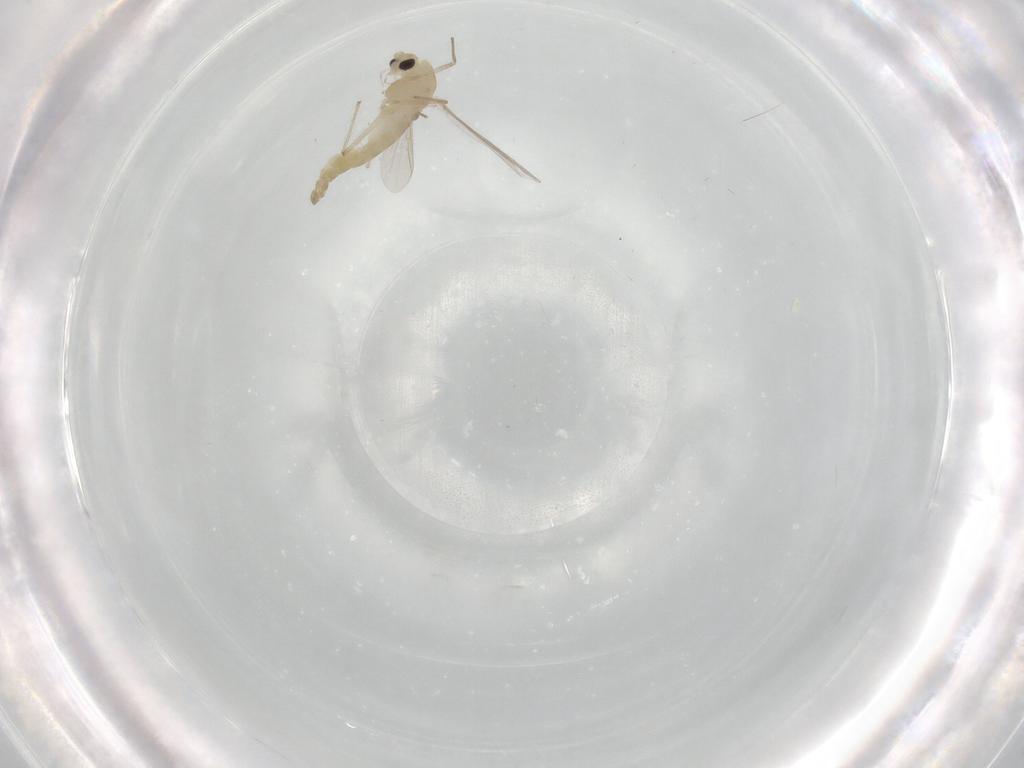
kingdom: Animalia
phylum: Arthropoda
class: Insecta
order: Diptera
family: Chironomidae
